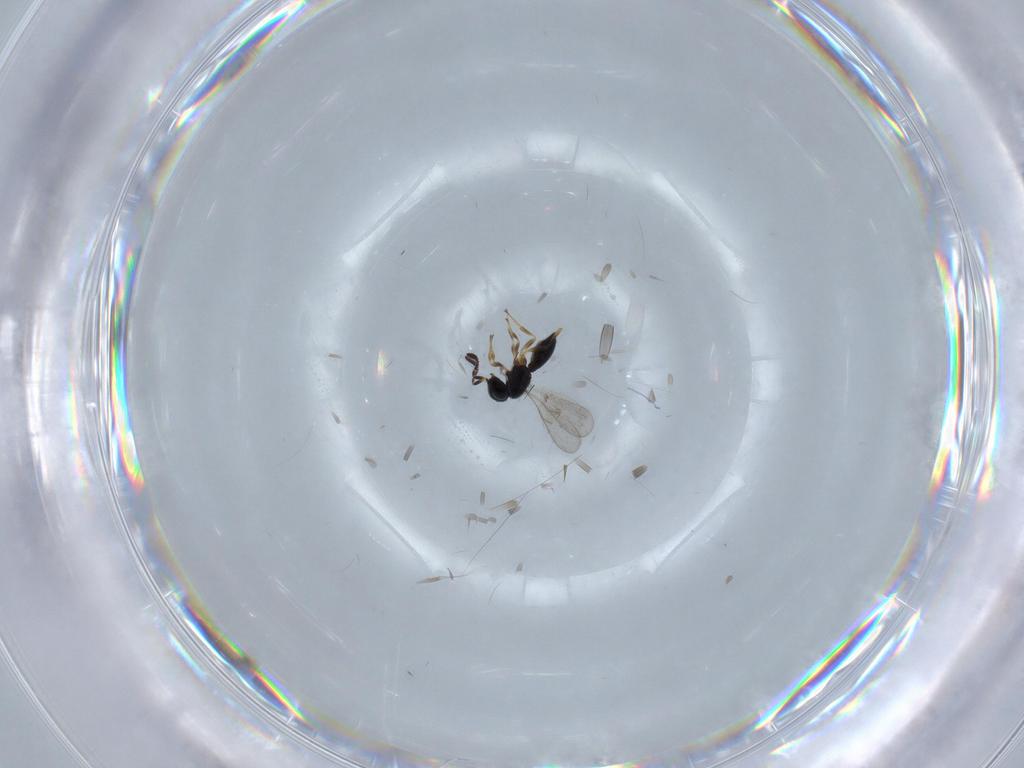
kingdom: Animalia
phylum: Arthropoda
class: Insecta
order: Hymenoptera
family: Scelionidae
